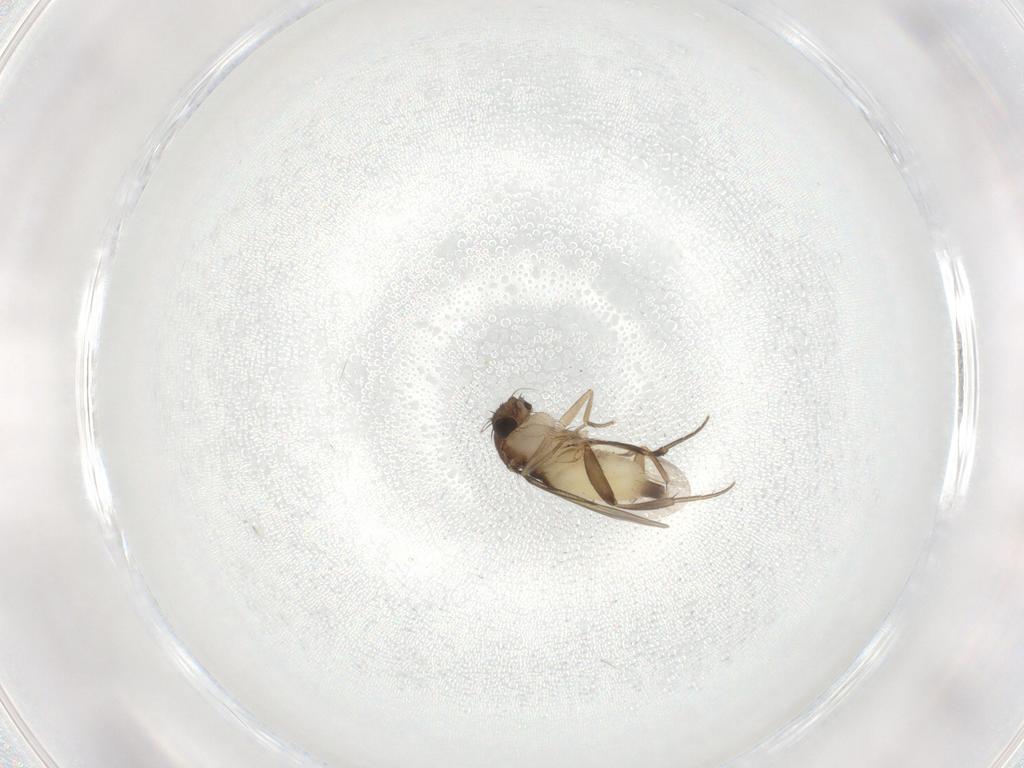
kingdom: Animalia
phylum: Arthropoda
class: Insecta
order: Diptera
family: Phoridae
